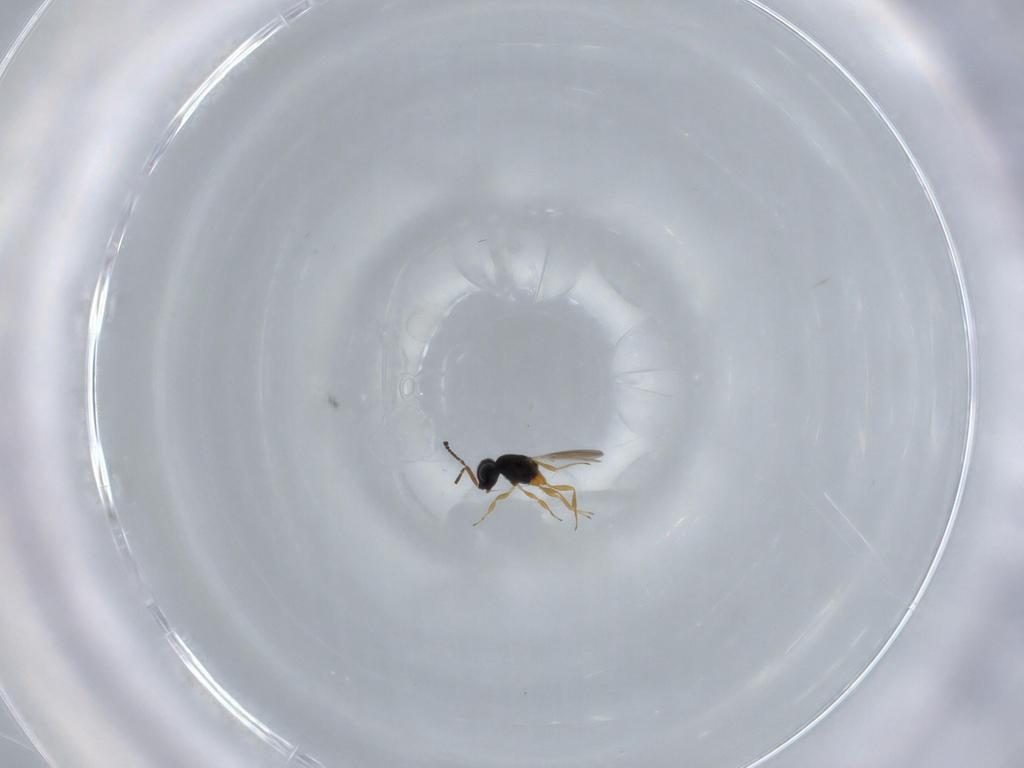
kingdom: Animalia
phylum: Arthropoda
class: Insecta
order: Hymenoptera
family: Scelionidae
